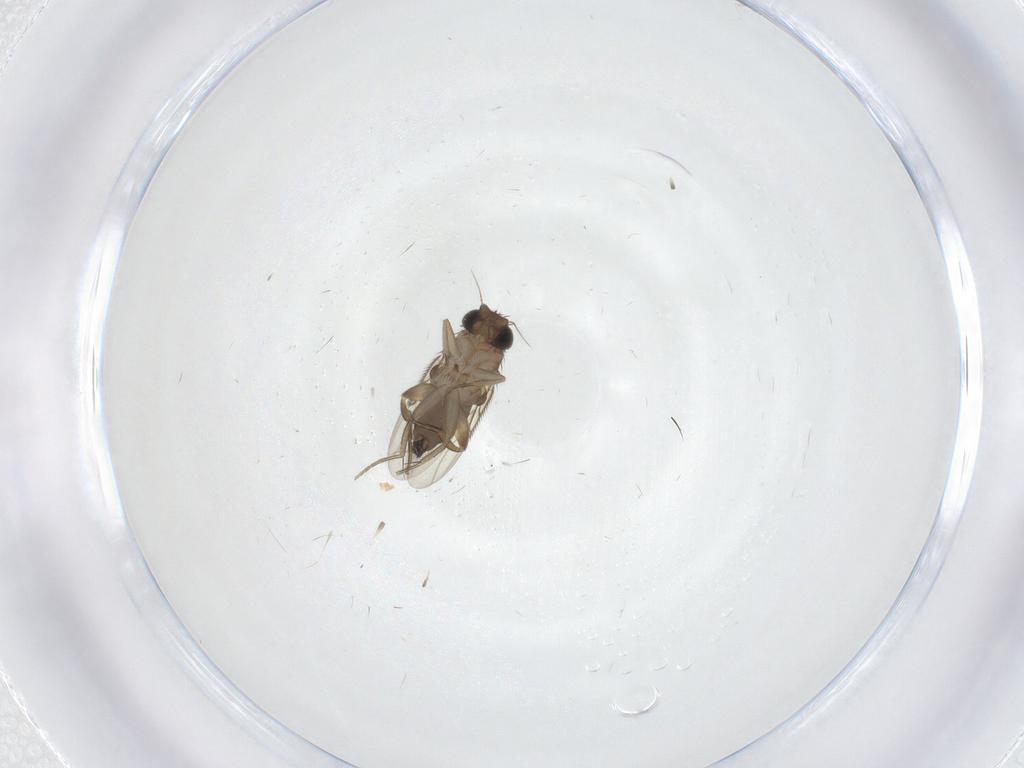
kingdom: Animalia
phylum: Arthropoda
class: Insecta
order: Diptera
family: Phoridae
